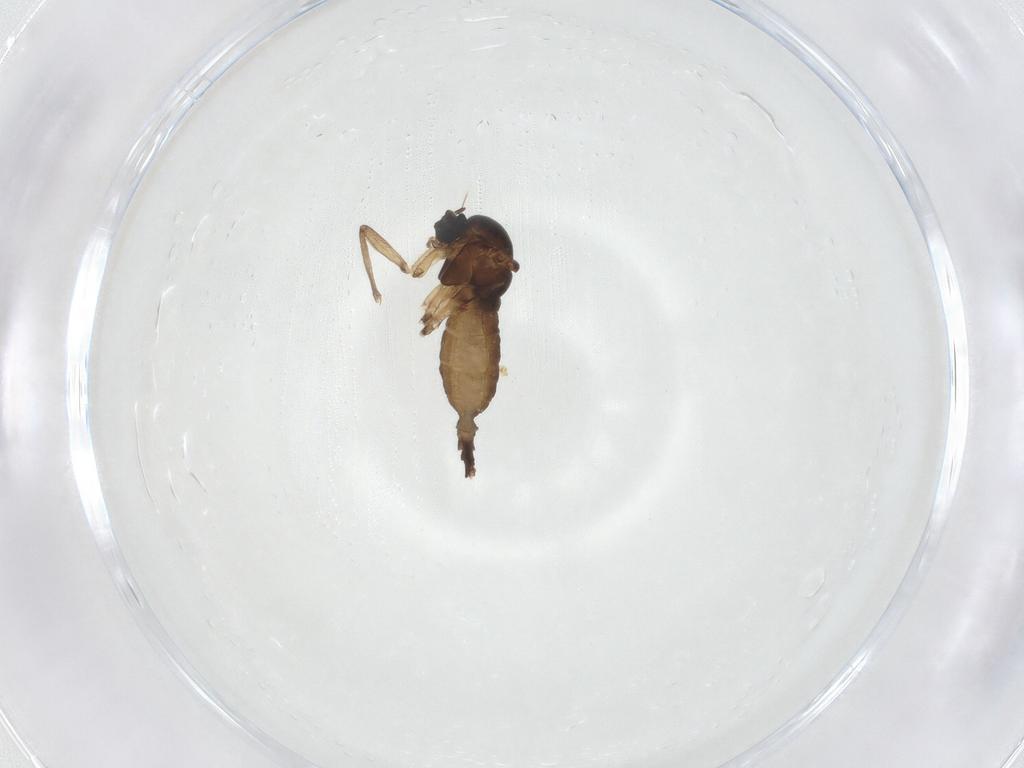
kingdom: Animalia
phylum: Arthropoda
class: Insecta
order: Diptera
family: Sciaridae
